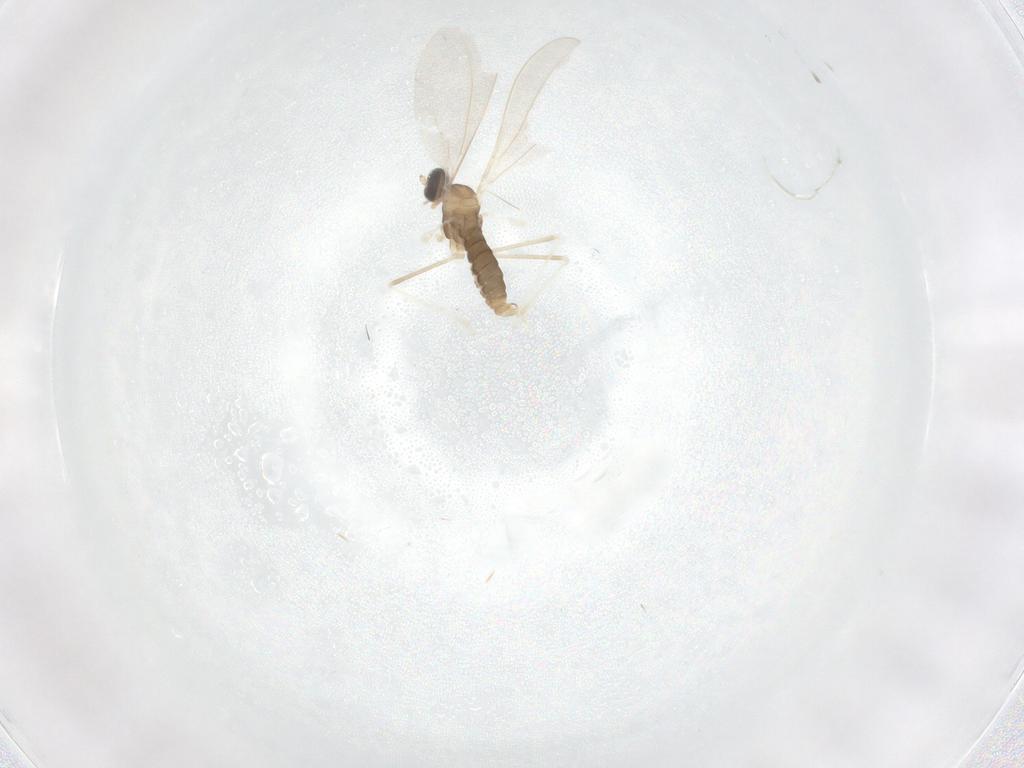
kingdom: Animalia
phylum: Arthropoda
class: Insecta
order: Diptera
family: Cecidomyiidae
